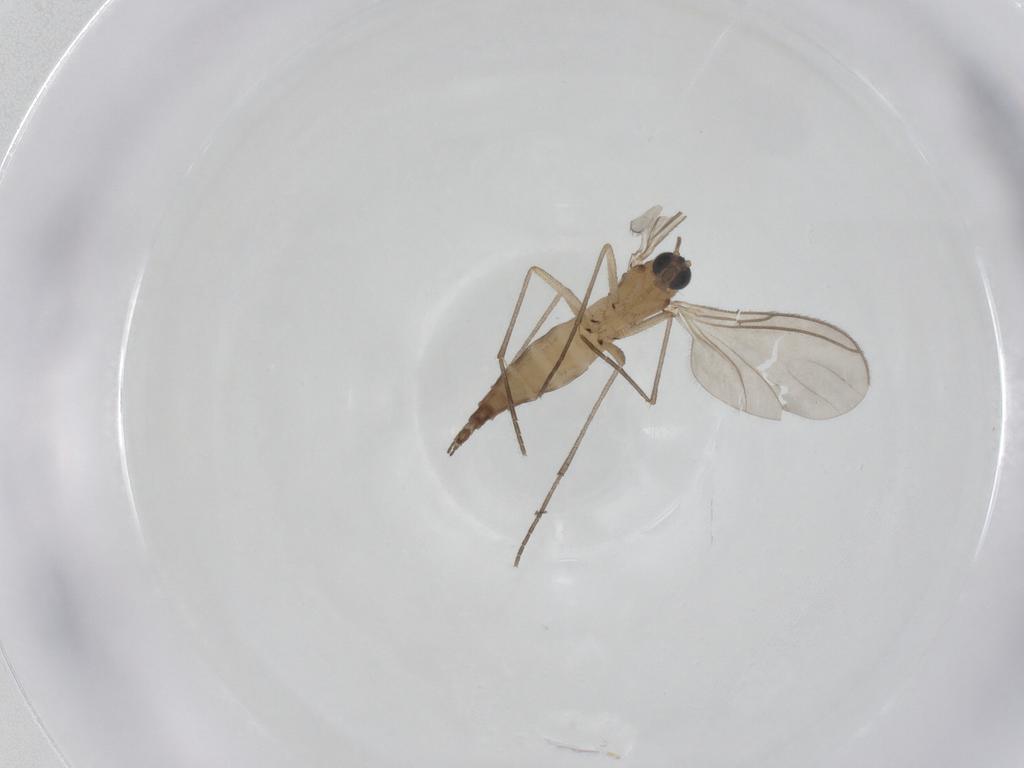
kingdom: Animalia
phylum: Arthropoda
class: Insecta
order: Diptera
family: Sciaridae
